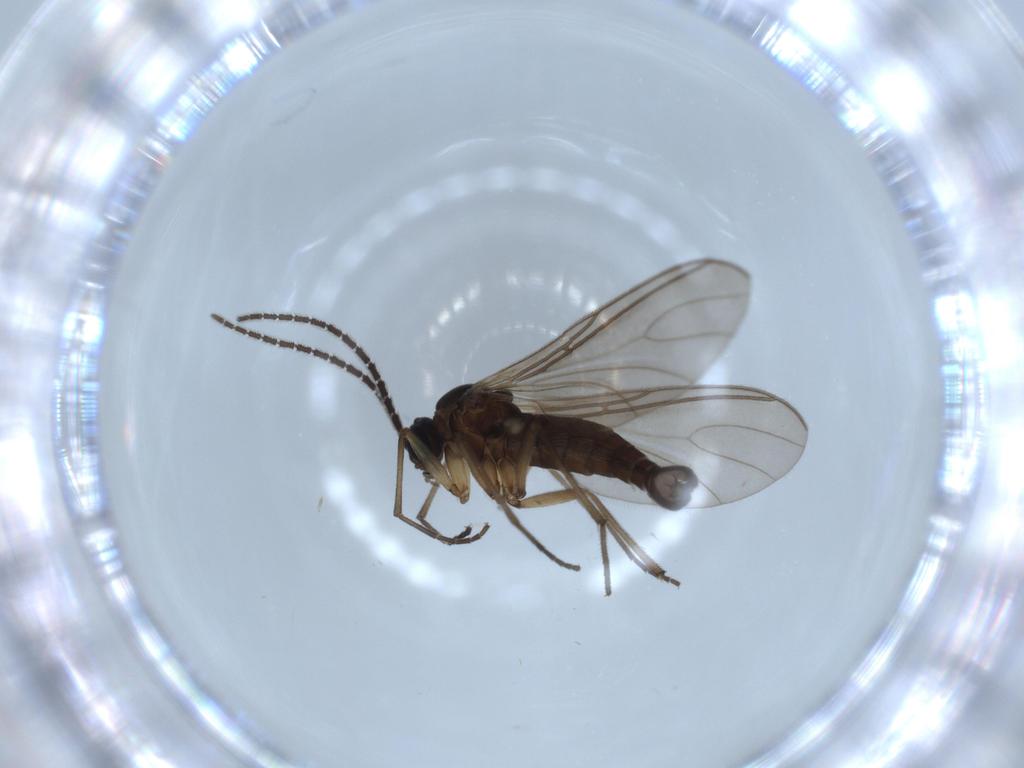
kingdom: Animalia
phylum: Arthropoda
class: Insecta
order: Diptera
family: Sciaridae
